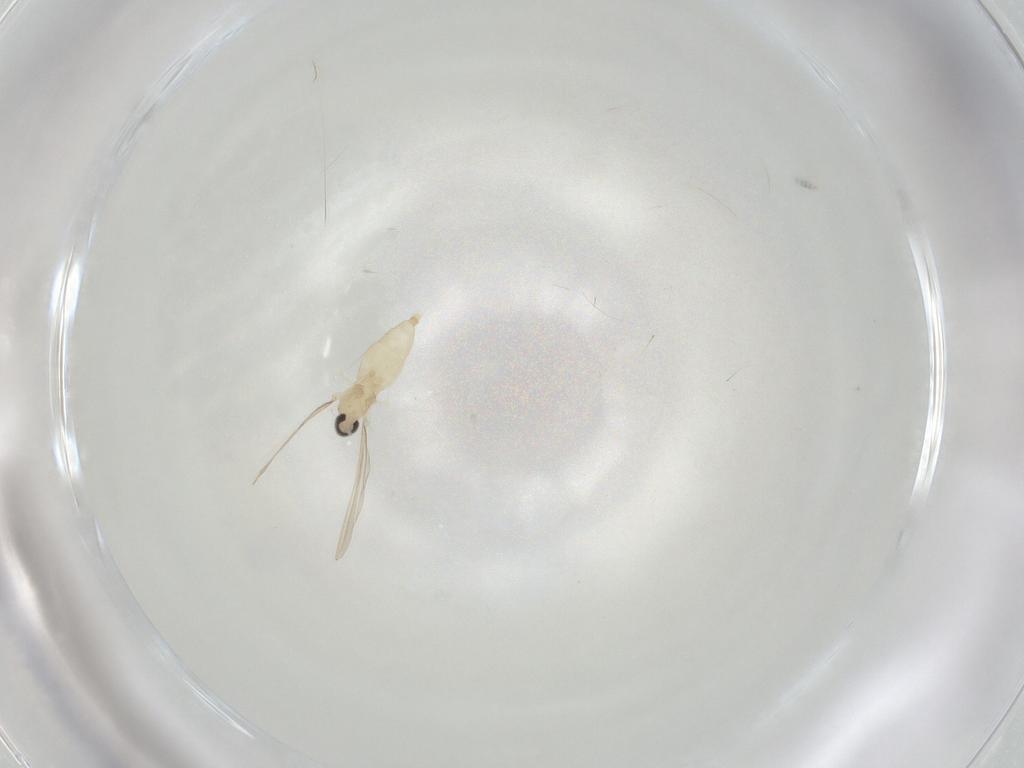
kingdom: Animalia
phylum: Arthropoda
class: Insecta
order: Diptera
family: Cecidomyiidae
